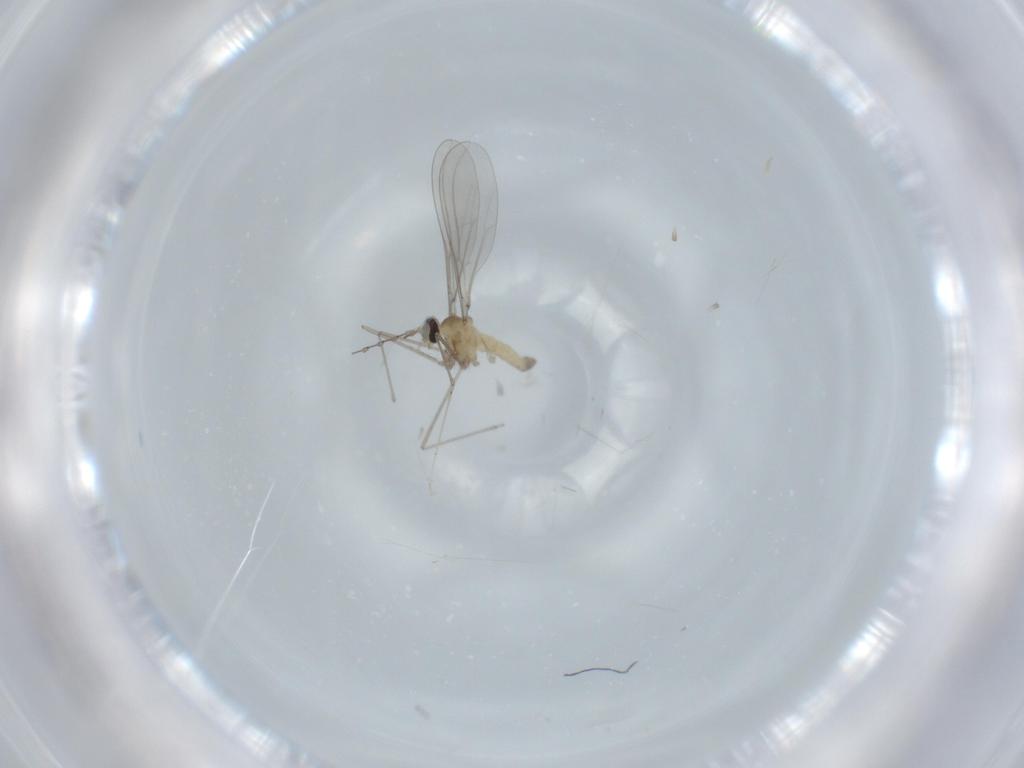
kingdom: Animalia
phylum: Arthropoda
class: Insecta
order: Diptera
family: Cecidomyiidae
